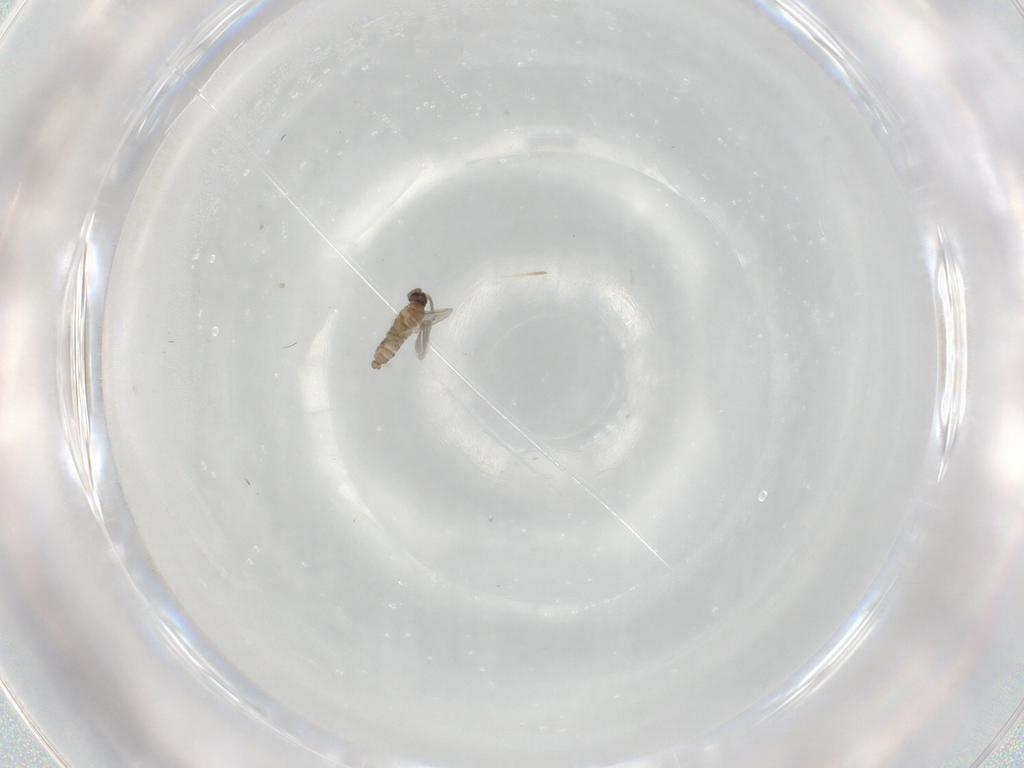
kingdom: Animalia
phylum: Arthropoda
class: Insecta
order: Diptera
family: Cecidomyiidae
